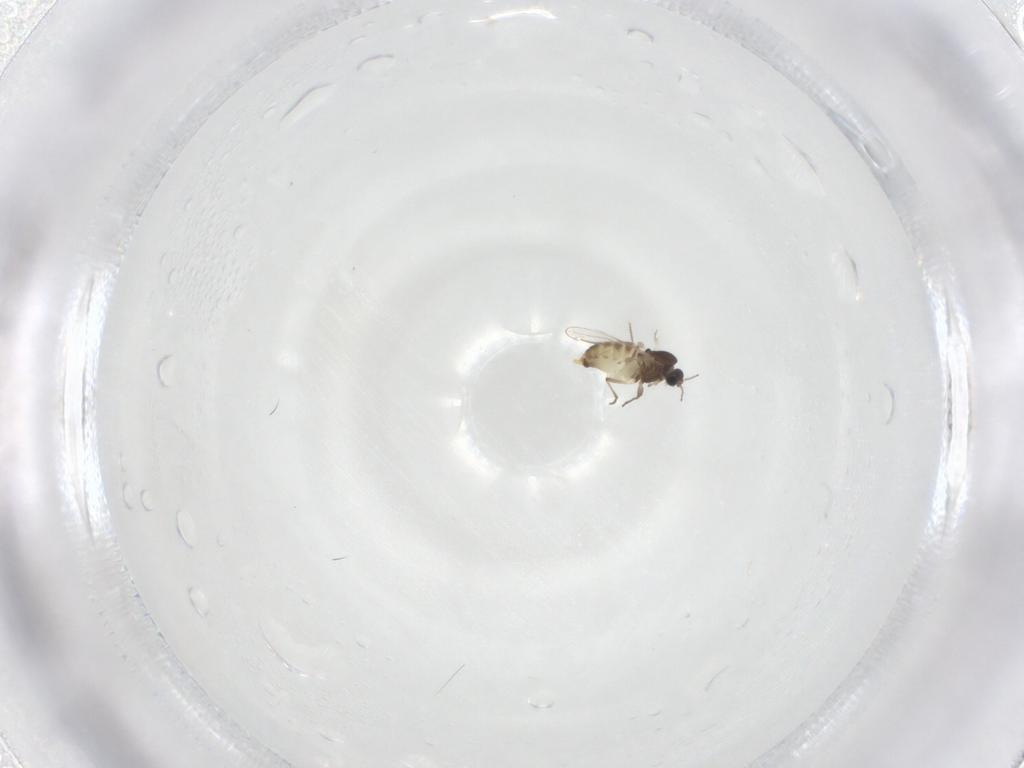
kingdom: Animalia
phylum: Arthropoda
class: Insecta
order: Diptera
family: Chironomidae
